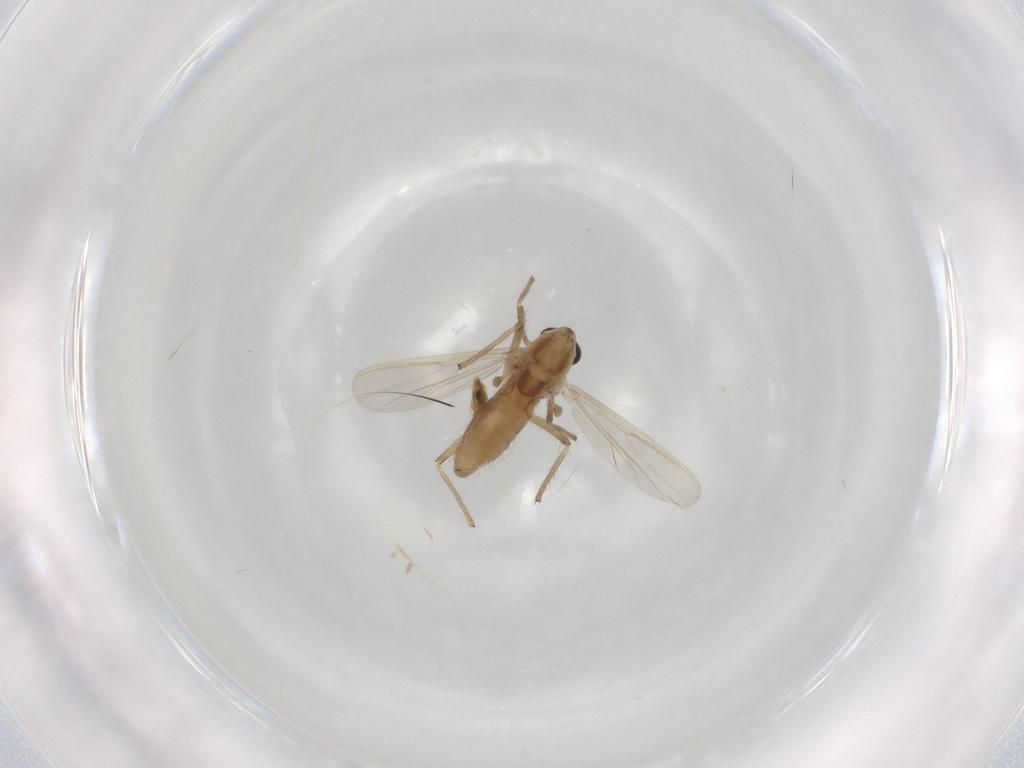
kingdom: Animalia
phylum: Arthropoda
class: Insecta
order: Diptera
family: Chironomidae
